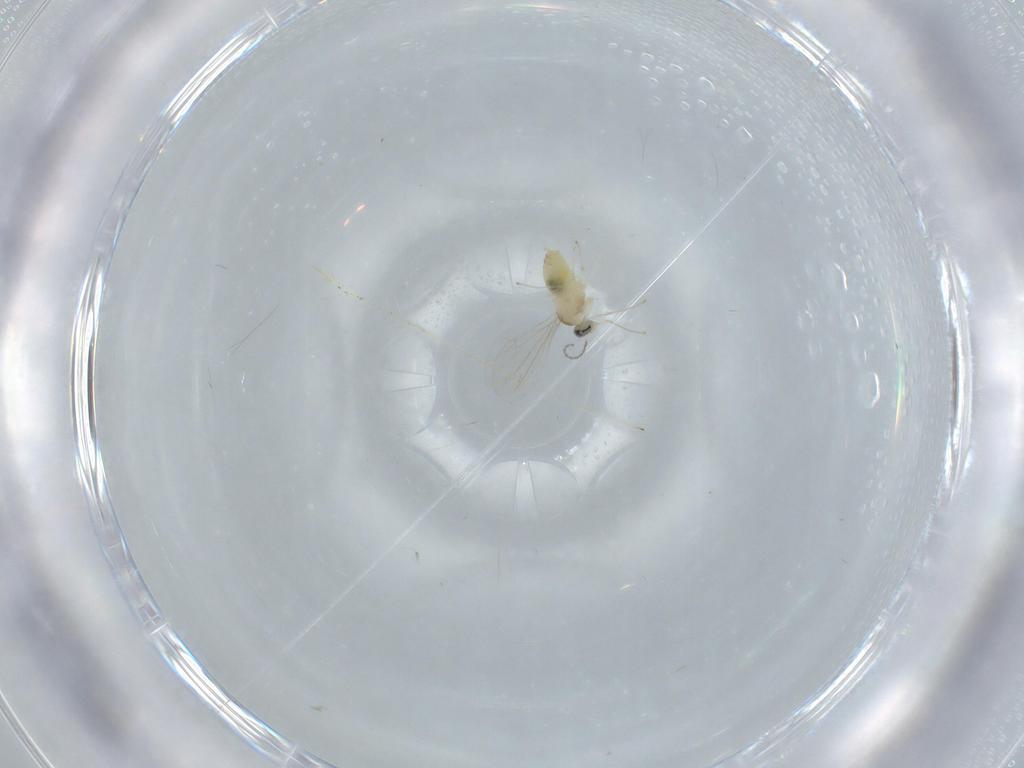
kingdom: Animalia
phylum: Arthropoda
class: Insecta
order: Diptera
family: Cecidomyiidae
